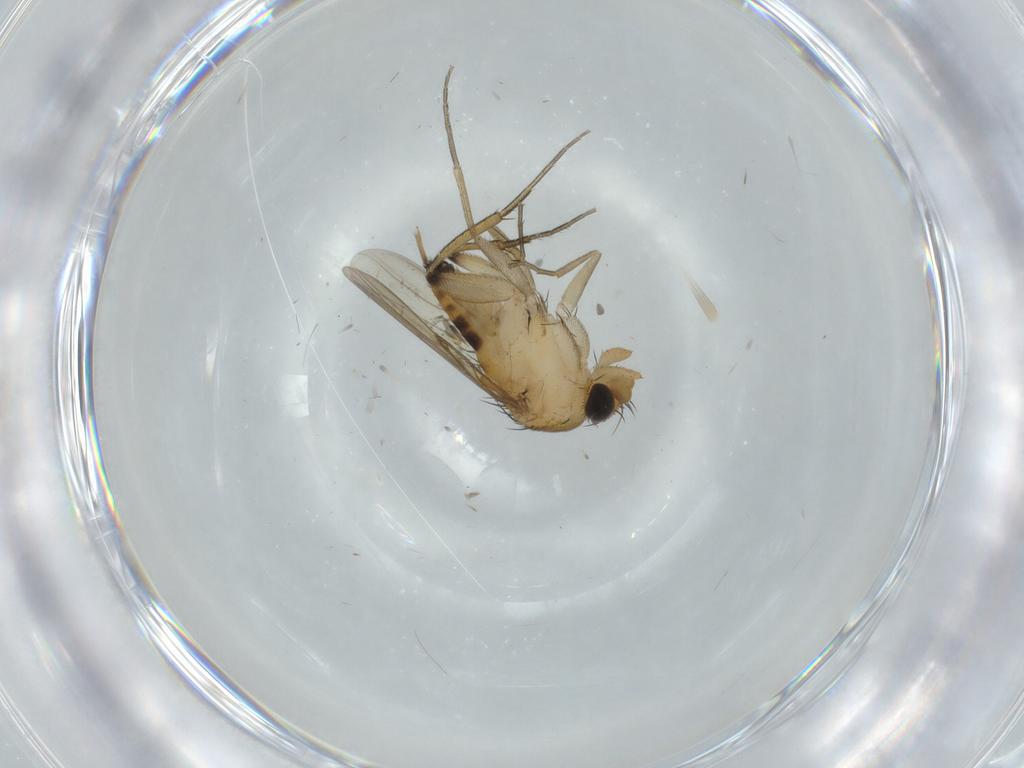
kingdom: Animalia
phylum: Arthropoda
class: Insecta
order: Diptera
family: Phoridae
